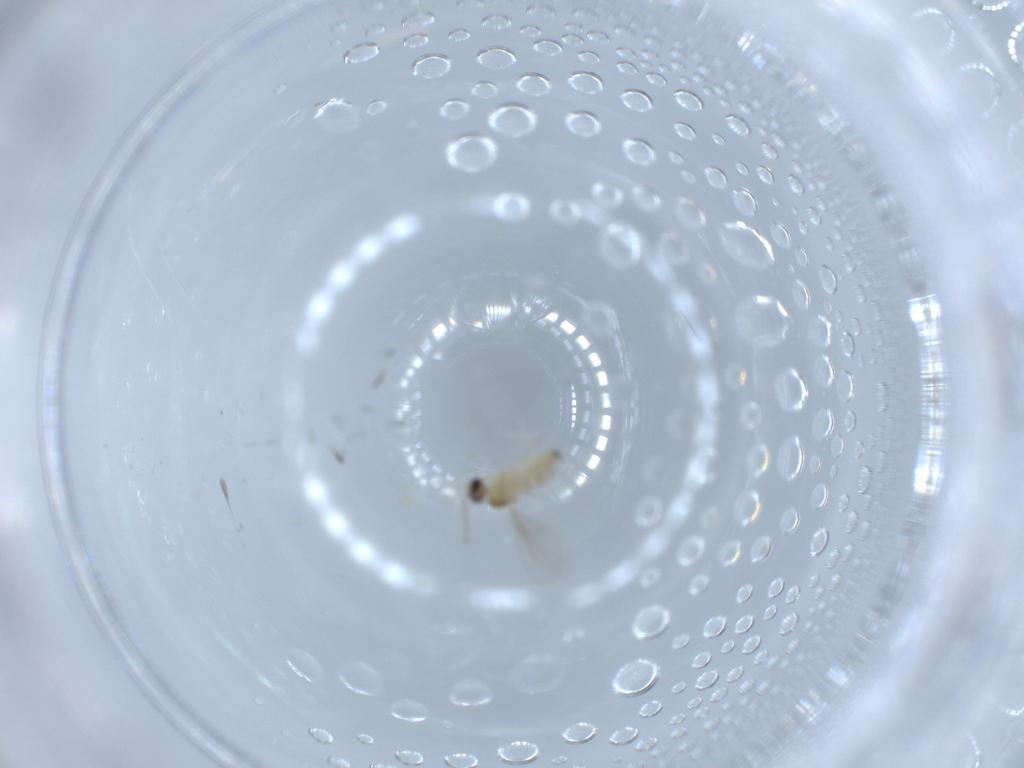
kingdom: Animalia
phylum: Arthropoda
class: Insecta
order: Diptera
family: Cecidomyiidae
